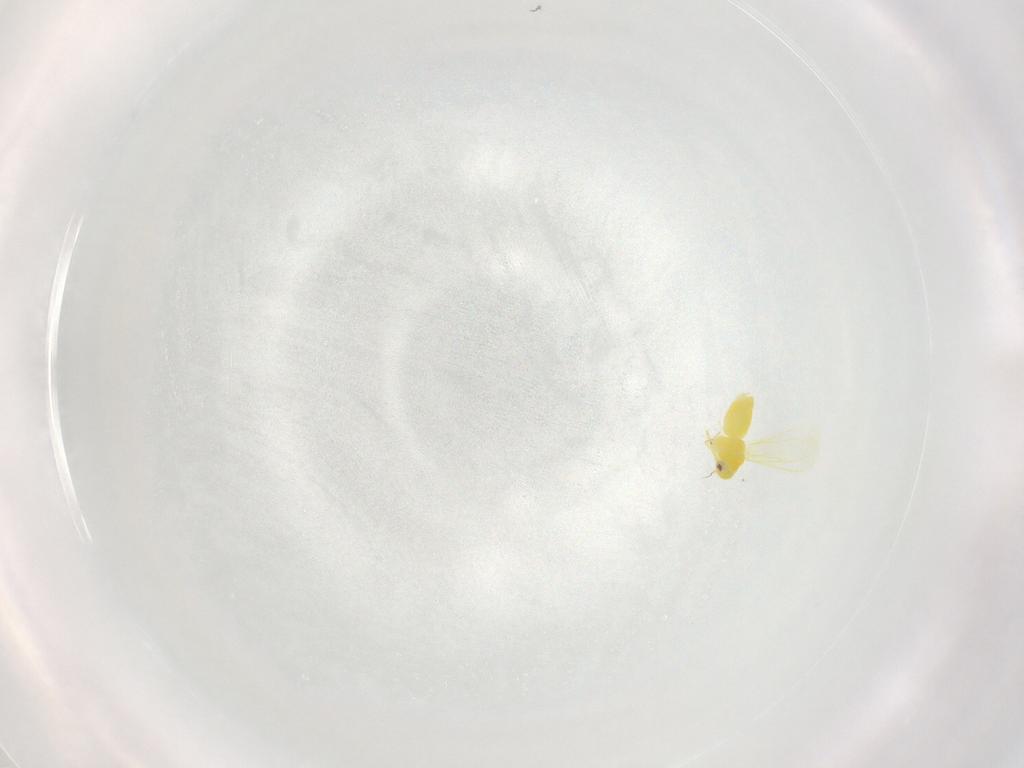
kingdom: Animalia
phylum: Arthropoda
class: Insecta
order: Hemiptera
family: Aleyrodidae
